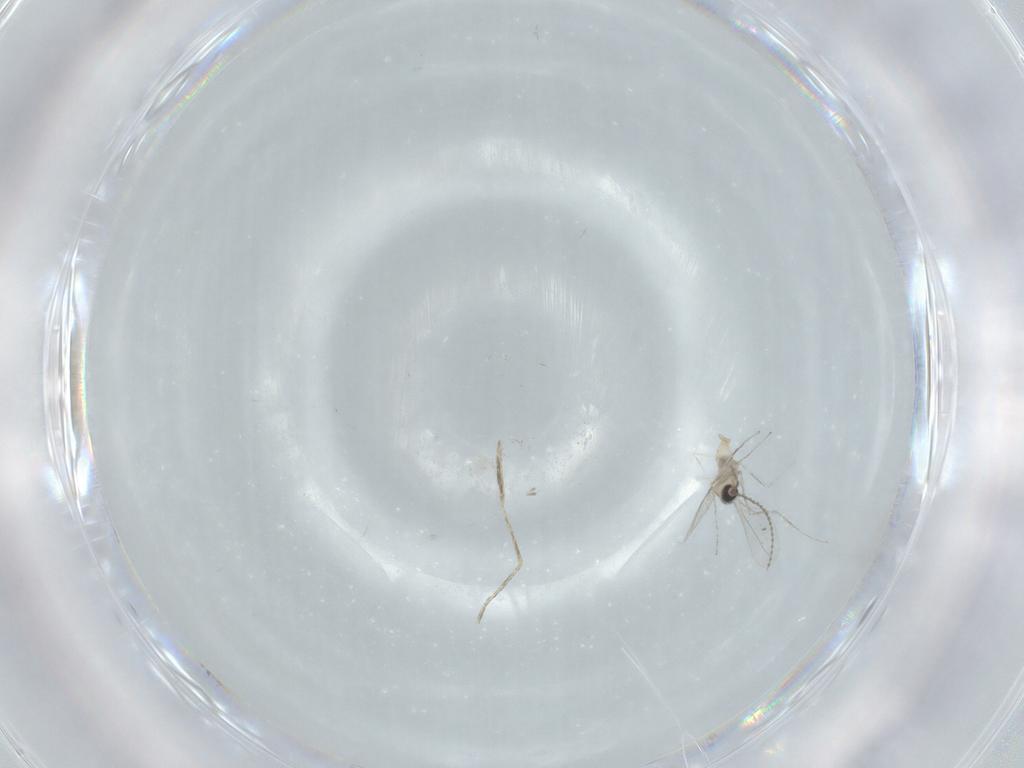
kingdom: Animalia
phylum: Arthropoda
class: Insecta
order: Diptera
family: Cecidomyiidae
